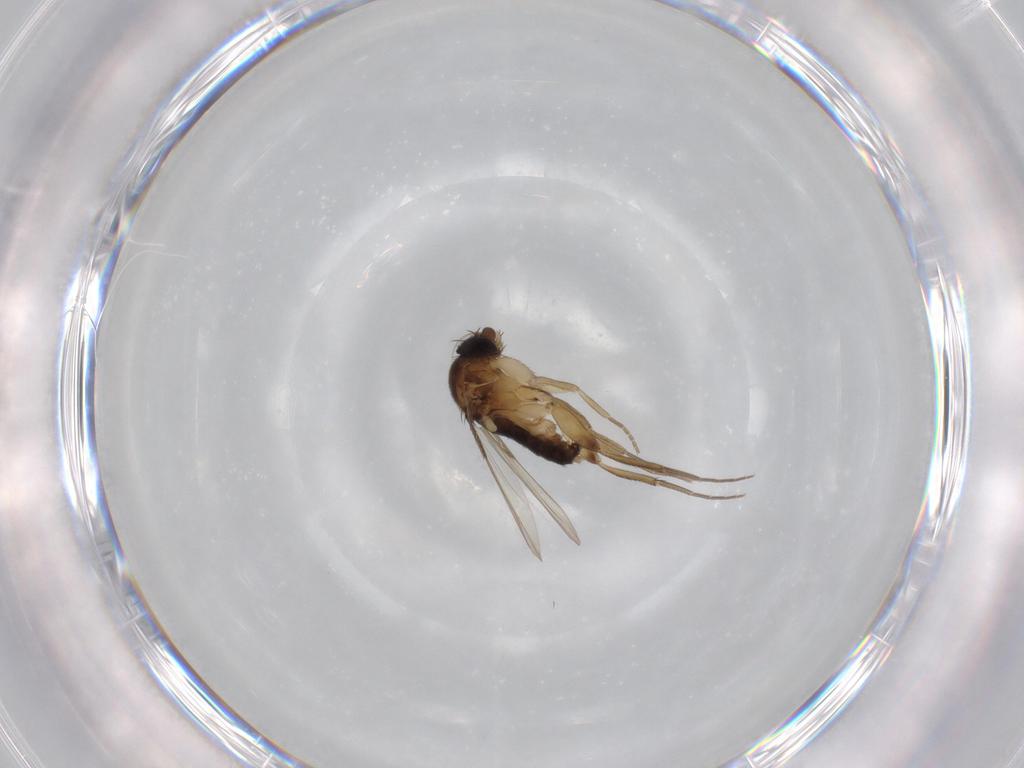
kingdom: Animalia
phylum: Arthropoda
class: Insecta
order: Diptera
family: Phoridae
